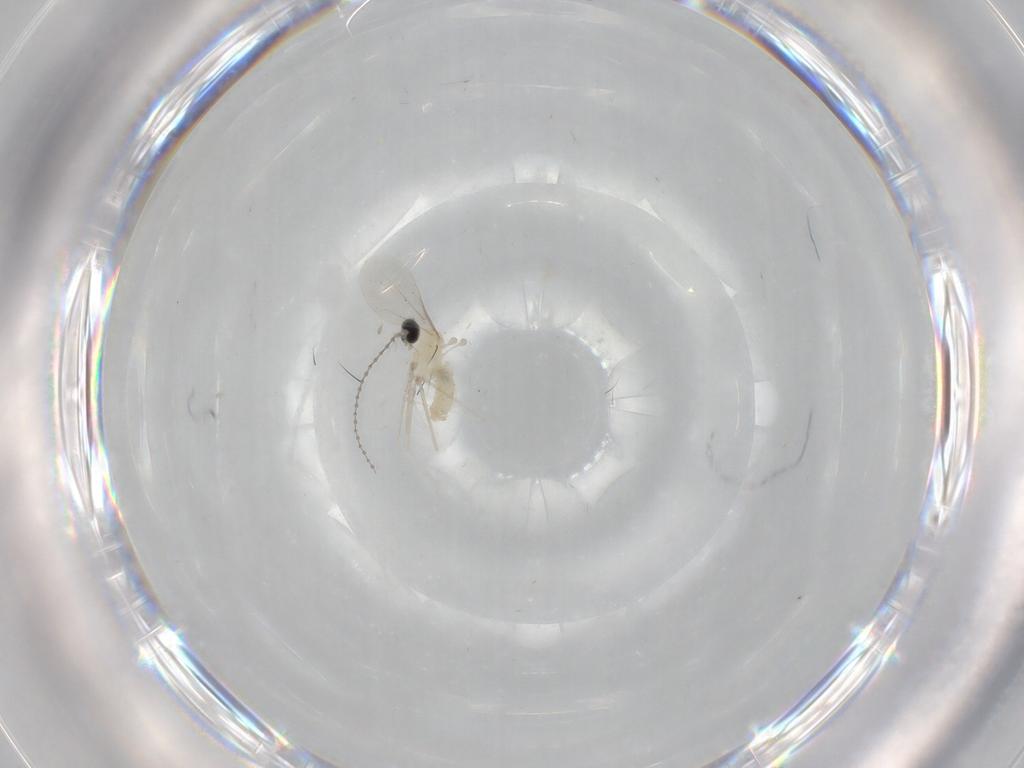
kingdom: Animalia
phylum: Arthropoda
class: Insecta
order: Diptera
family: Cecidomyiidae
